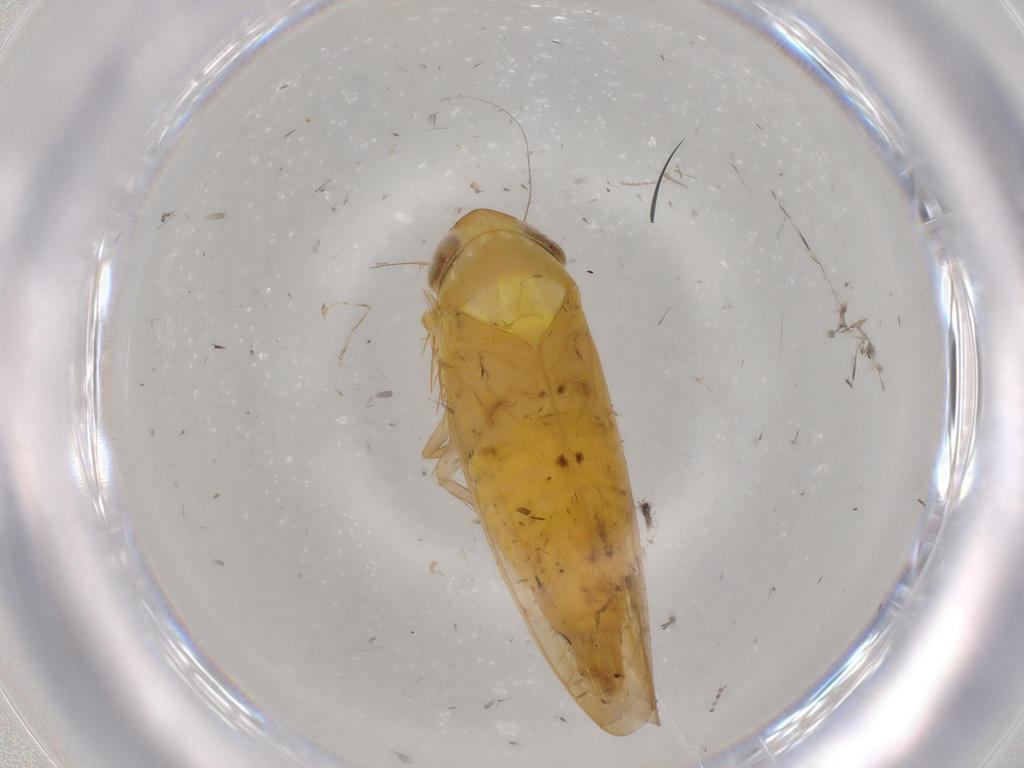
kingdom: Animalia
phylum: Arthropoda
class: Insecta
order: Hemiptera
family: Cicadellidae
